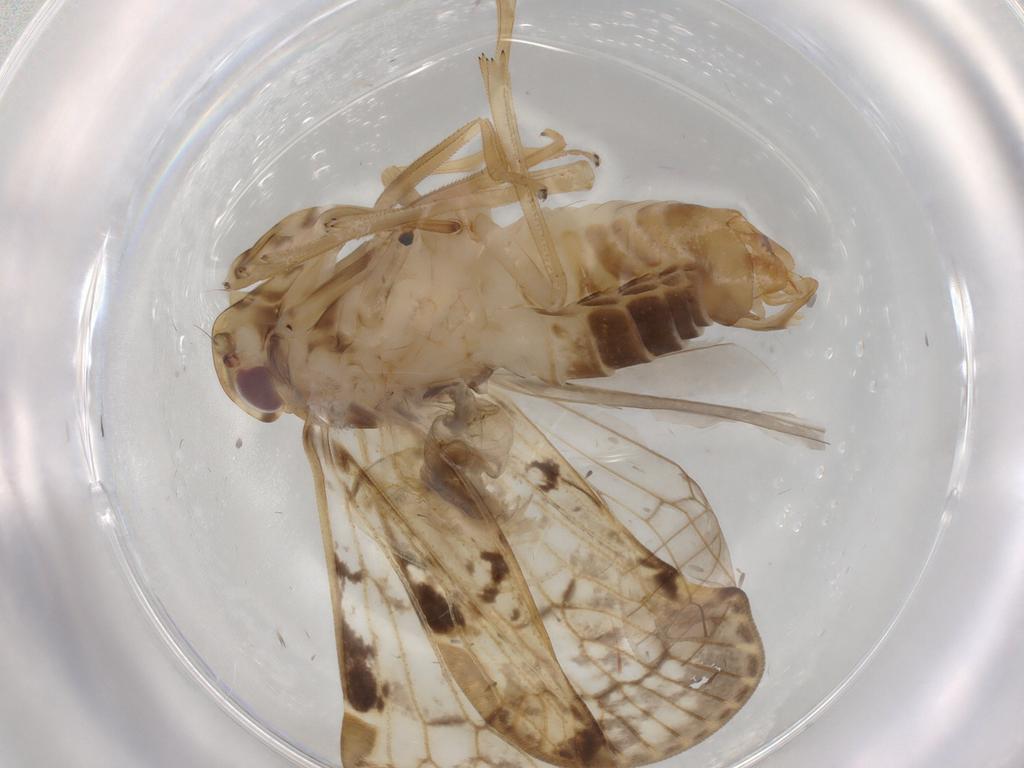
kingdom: Animalia
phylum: Arthropoda
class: Insecta
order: Hemiptera
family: Cixiidae
